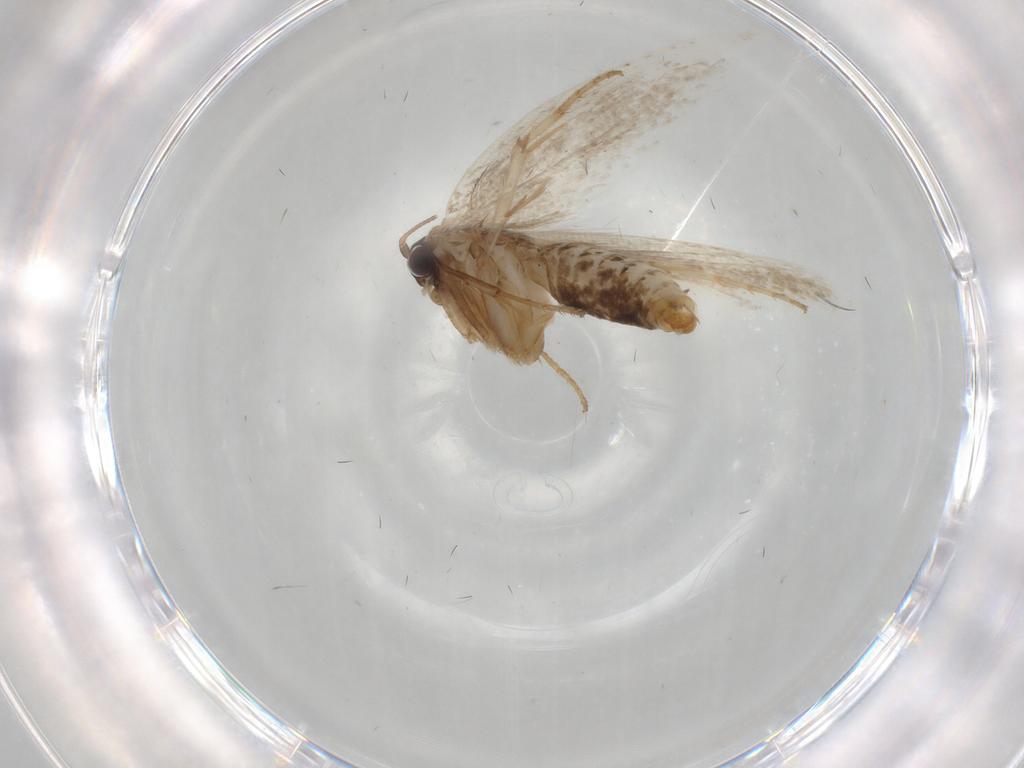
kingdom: Animalia
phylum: Arthropoda
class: Insecta
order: Lepidoptera
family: Nepticulidae
